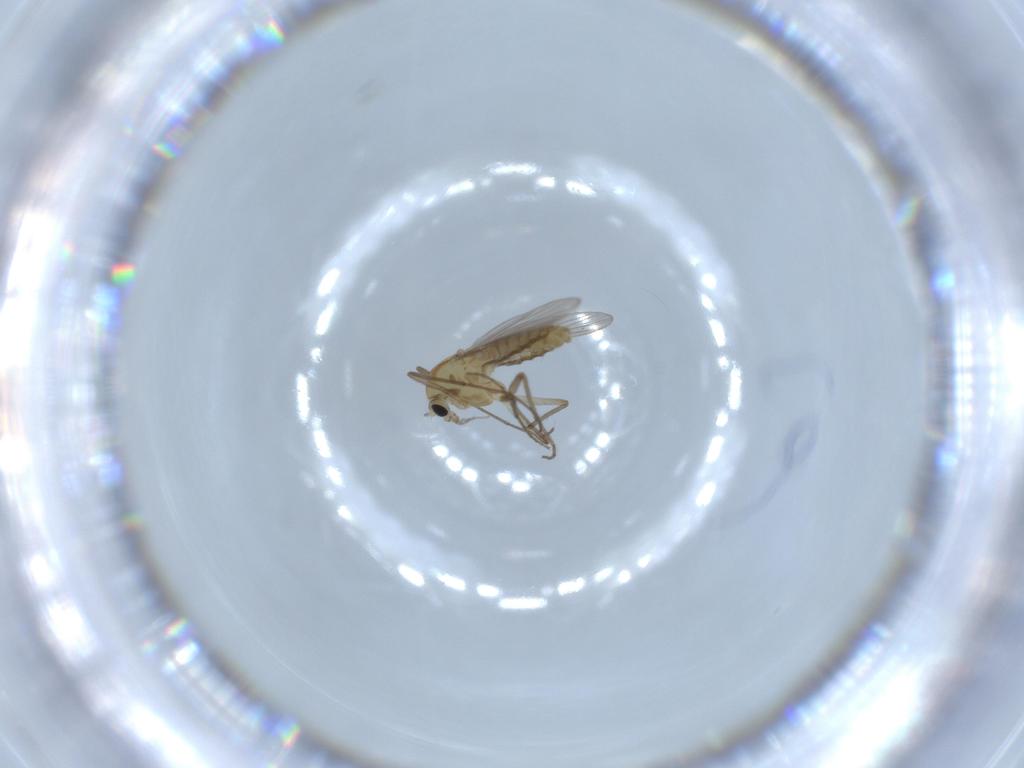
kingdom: Animalia
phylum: Arthropoda
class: Insecta
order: Diptera
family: Chironomidae
